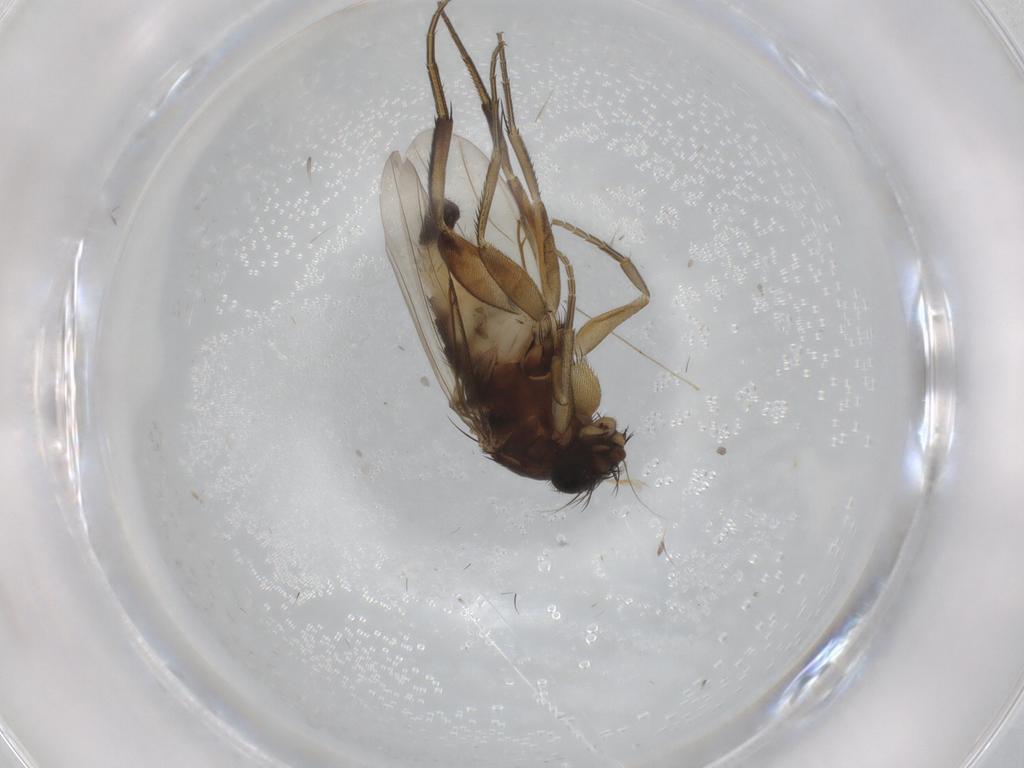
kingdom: Animalia
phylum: Arthropoda
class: Insecta
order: Diptera
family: Phoridae
